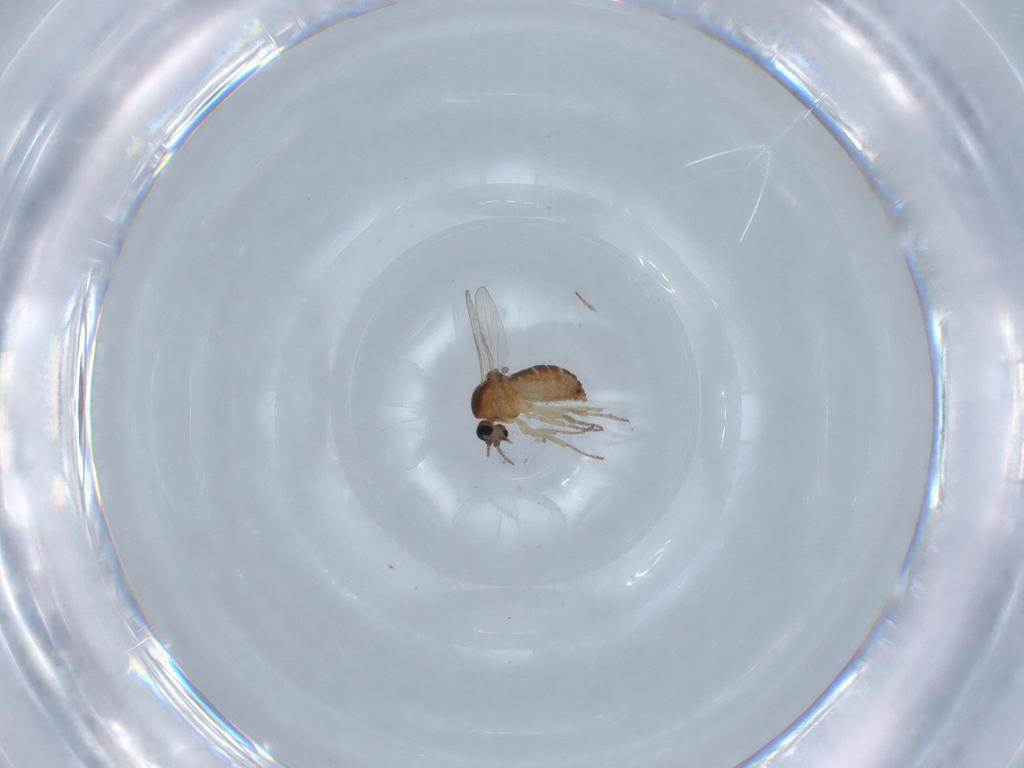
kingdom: Animalia
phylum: Arthropoda
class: Insecta
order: Diptera
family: Ceratopogonidae
